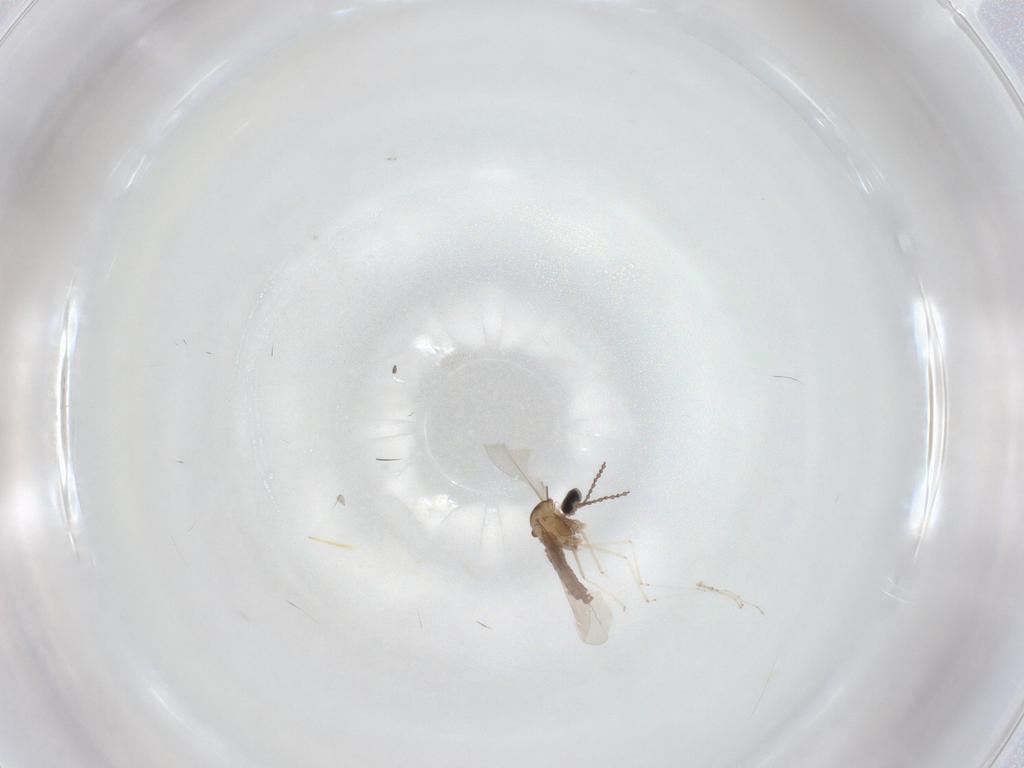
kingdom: Animalia
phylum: Arthropoda
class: Insecta
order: Diptera
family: Cecidomyiidae
